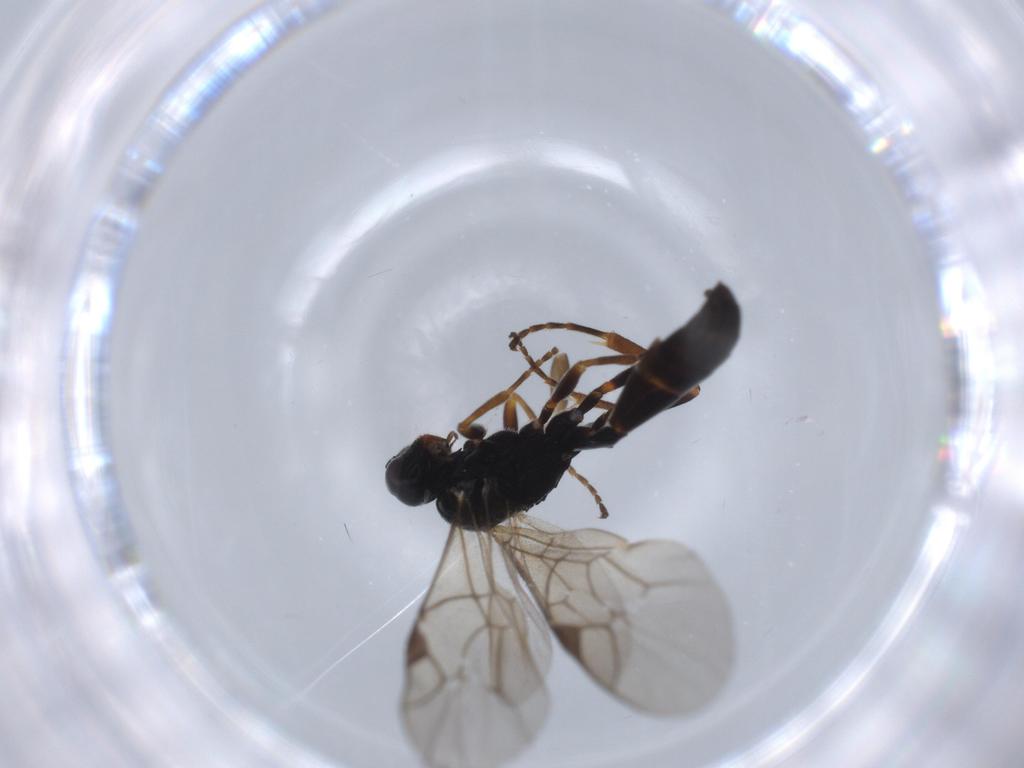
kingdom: Animalia
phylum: Arthropoda
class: Insecta
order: Hymenoptera
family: Ichneumonidae
